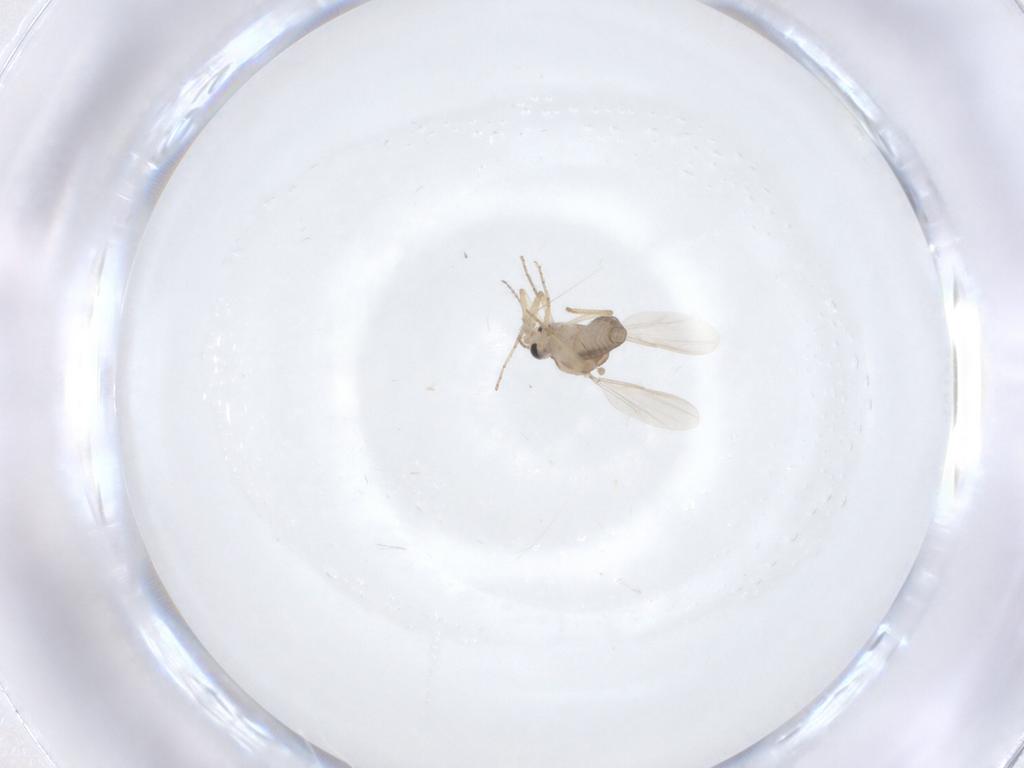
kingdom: Animalia
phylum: Arthropoda
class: Insecta
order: Diptera
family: Ceratopogonidae
